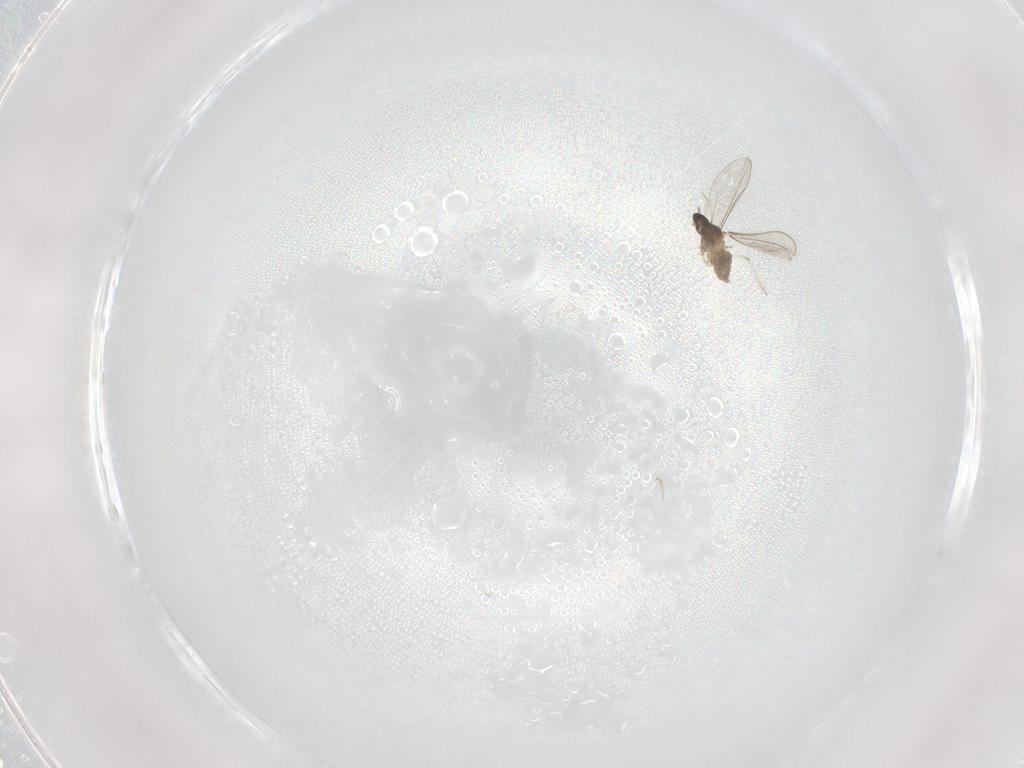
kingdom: Animalia
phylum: Arthropoda
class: Insecta
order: Diptera
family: Cecidomyiidae
